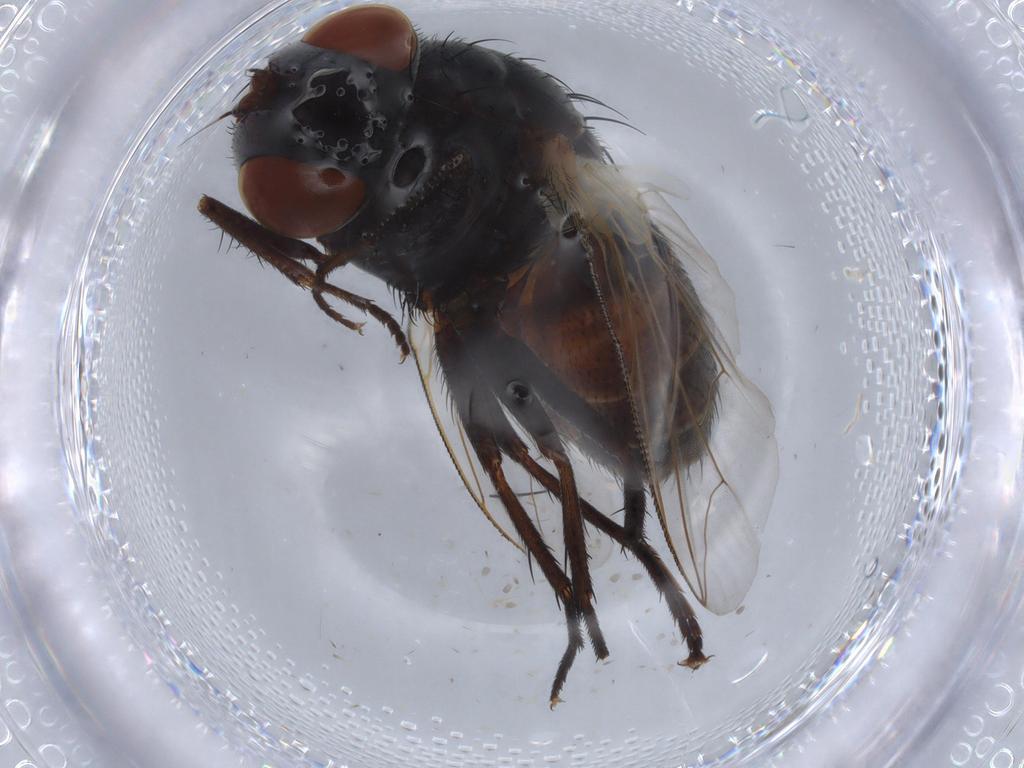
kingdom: Animalia
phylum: Arthropoda
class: Insecta
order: Diptera
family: Sarcophagidae
